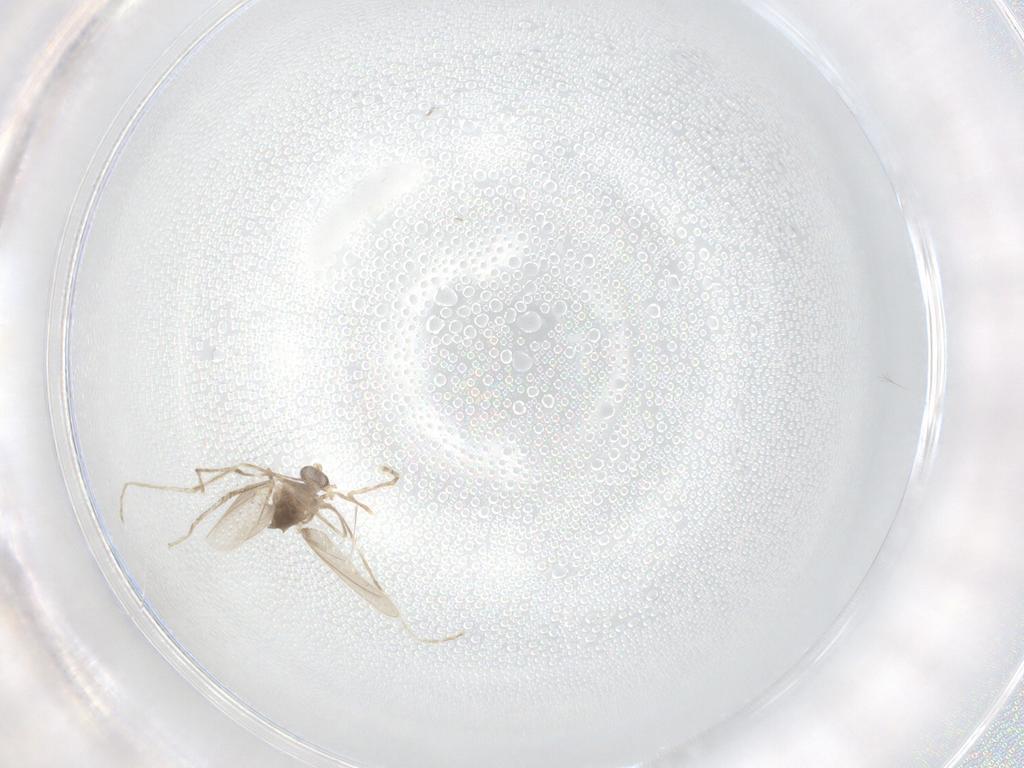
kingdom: Animalia
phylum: Arthropoda
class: Insecta
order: Diptera
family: Cecidomyiidae
